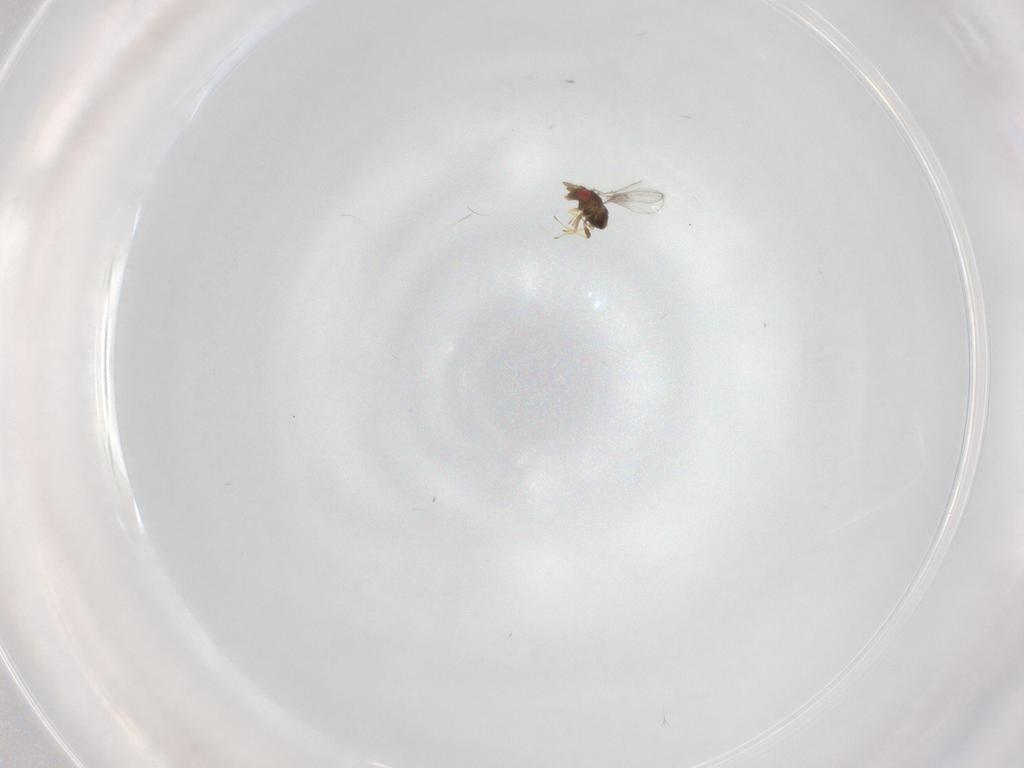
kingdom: Animalia
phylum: Arthropoda
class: Insecta
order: Hymenoptera
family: Trichogrammatidae
